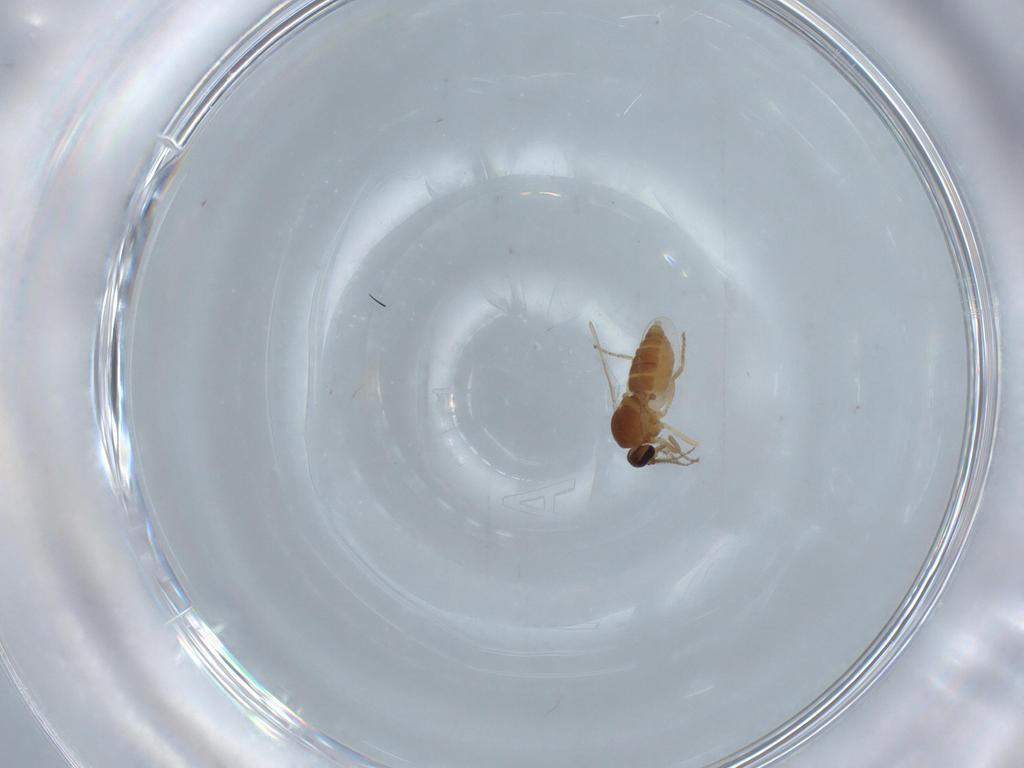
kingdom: Animalia
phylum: Arthropoda
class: Insecta
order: Diptera
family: Ceratopogonidae
